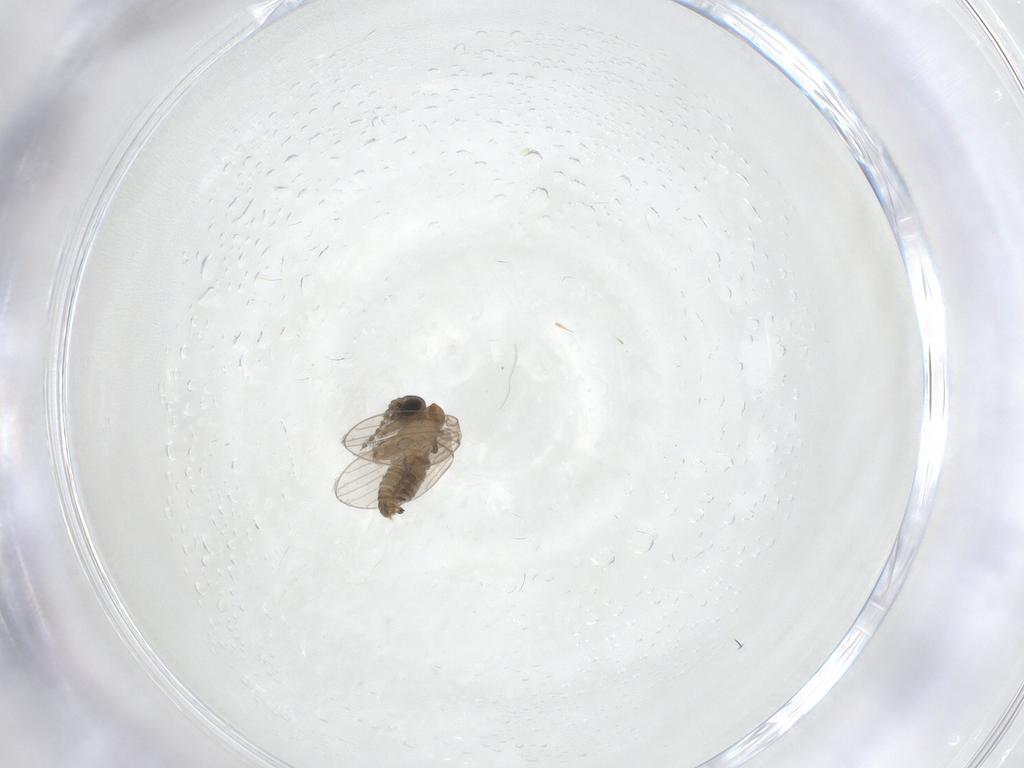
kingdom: Animalia
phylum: Arthropoda
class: Insecta
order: Diptera
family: Psychodidae
